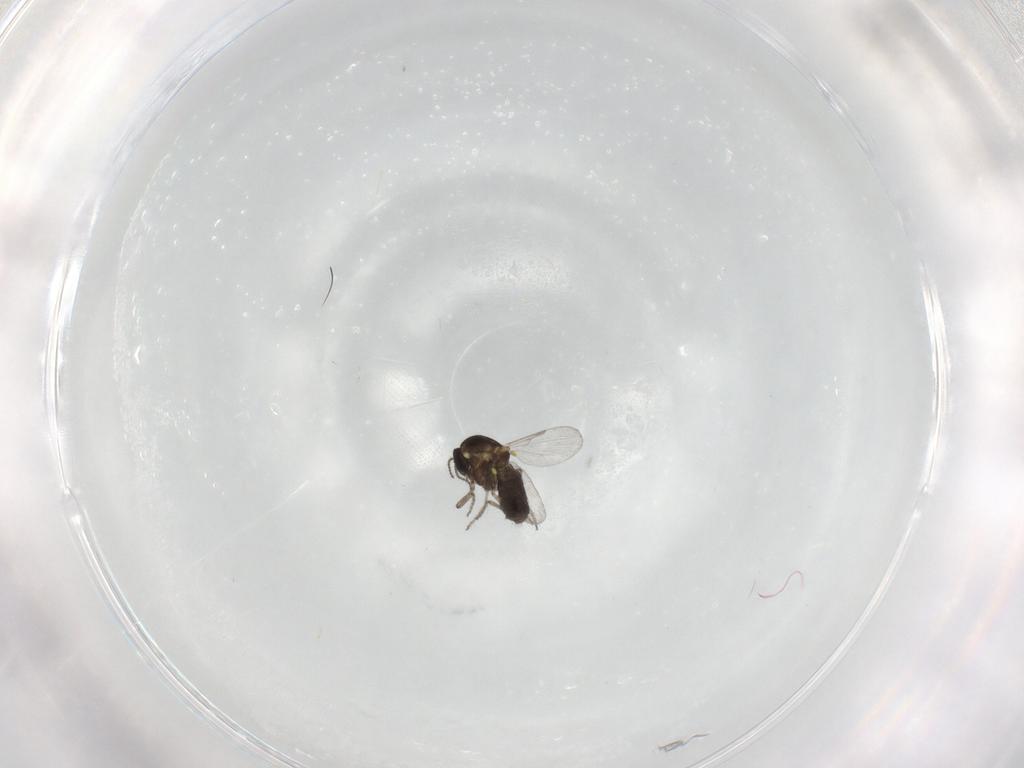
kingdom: Animalia
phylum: Arthropoda
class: Insecta
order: Diptera
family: Ceratopogonidae
